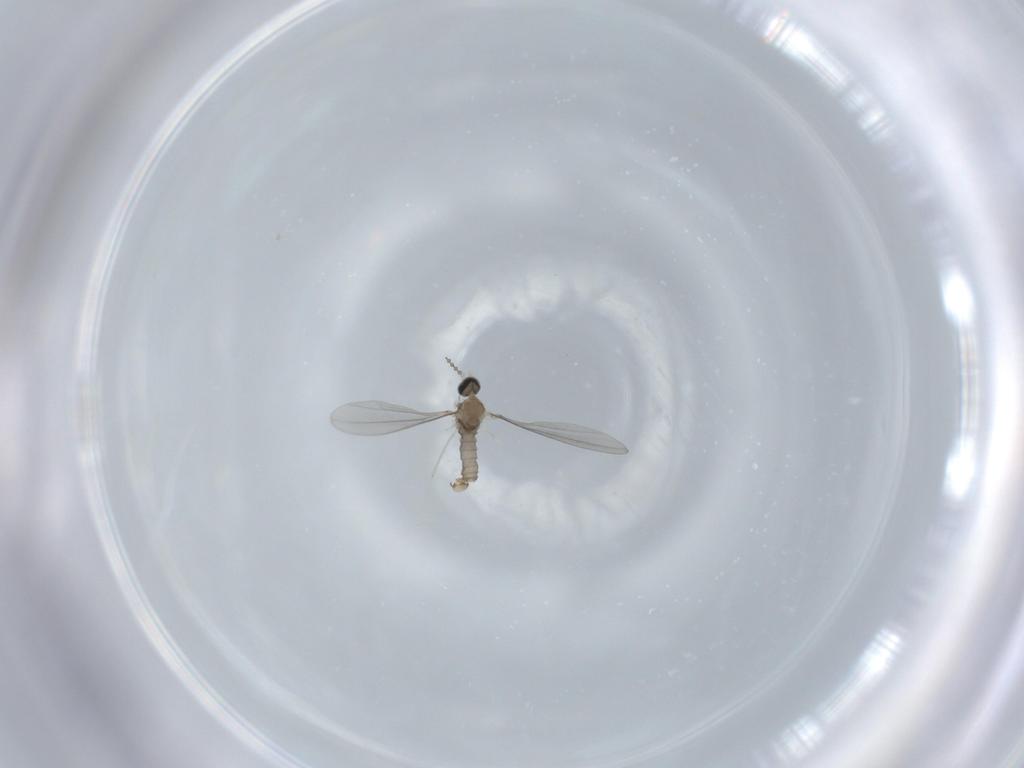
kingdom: Animalia
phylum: Arthropoda
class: Insecta
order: Diptera
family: Cecidomyiidae
